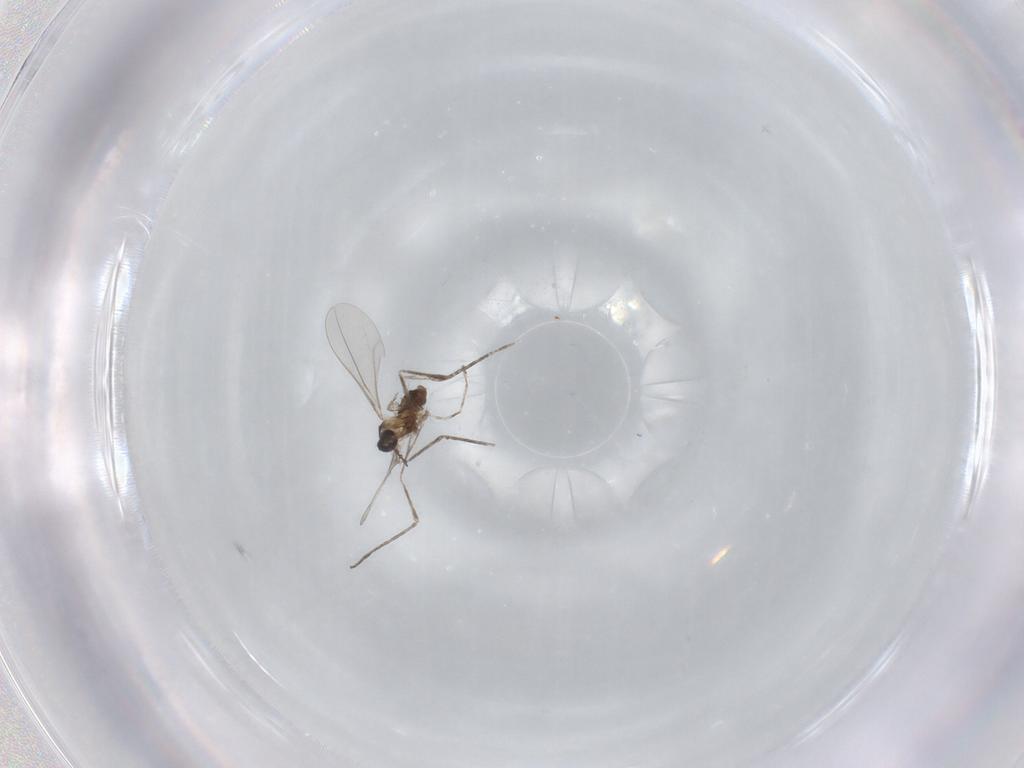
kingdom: Animalia
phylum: Arthropoda
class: Insecta
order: Diptera
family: Cecidomyiidae
